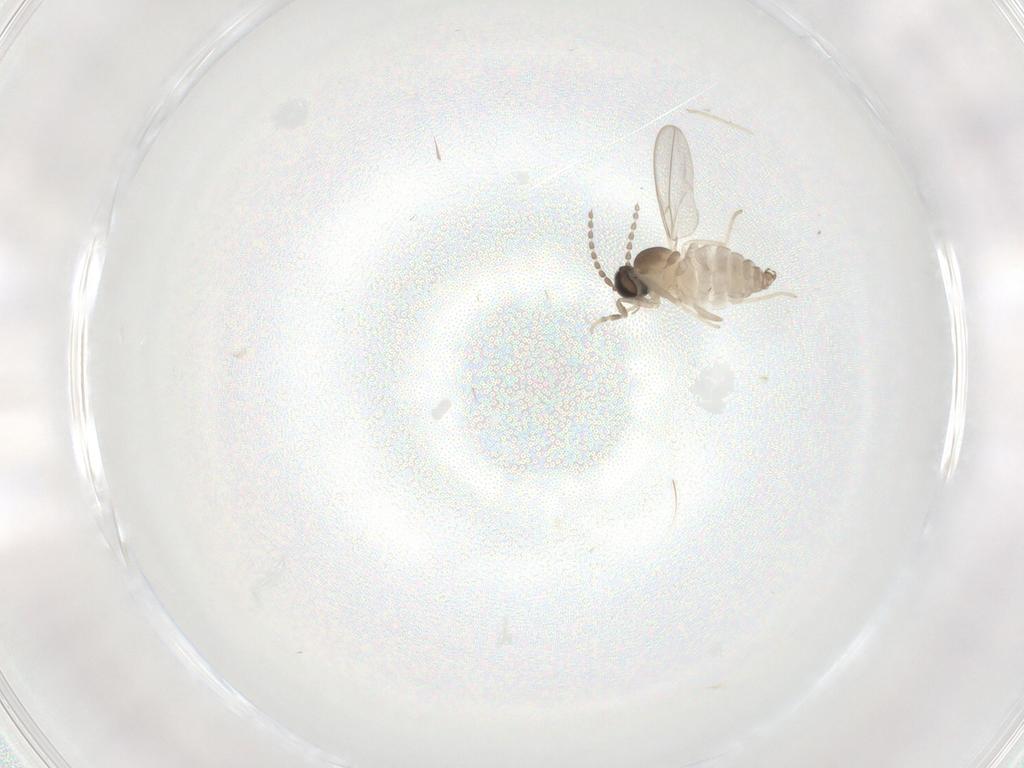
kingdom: Animalia
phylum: Arthropoda
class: Insecta
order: Diptera
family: Cecidomyiidae
